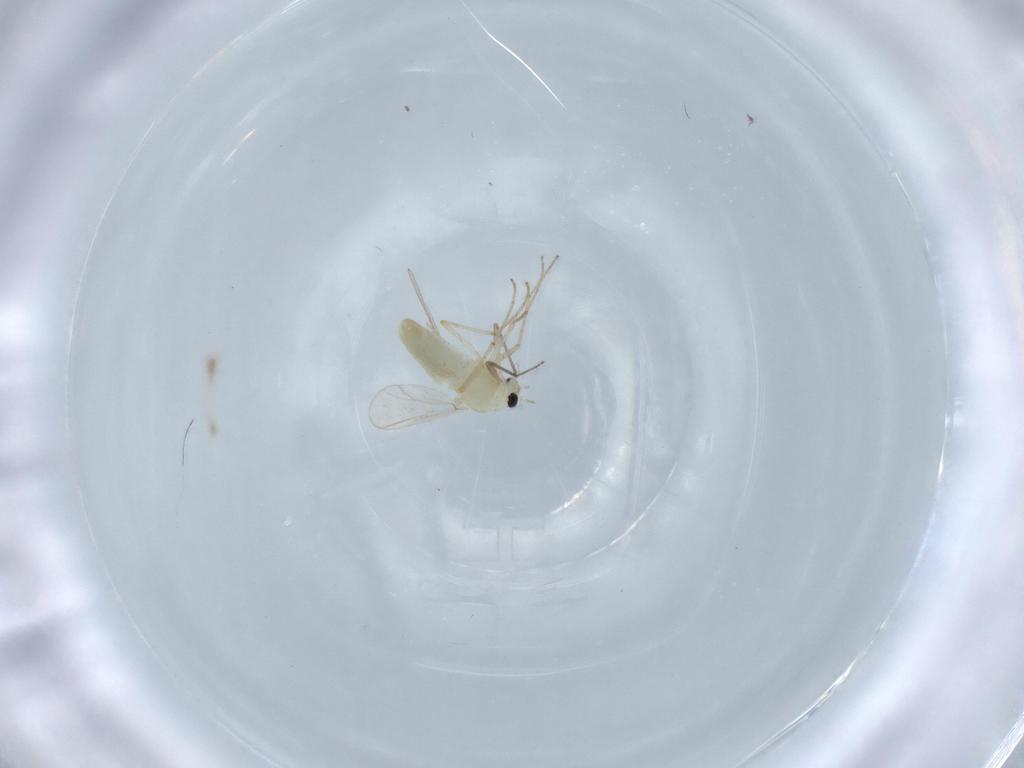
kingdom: Animalia
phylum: Arthropoda
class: Insecta
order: Diptera
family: Chironomidae
